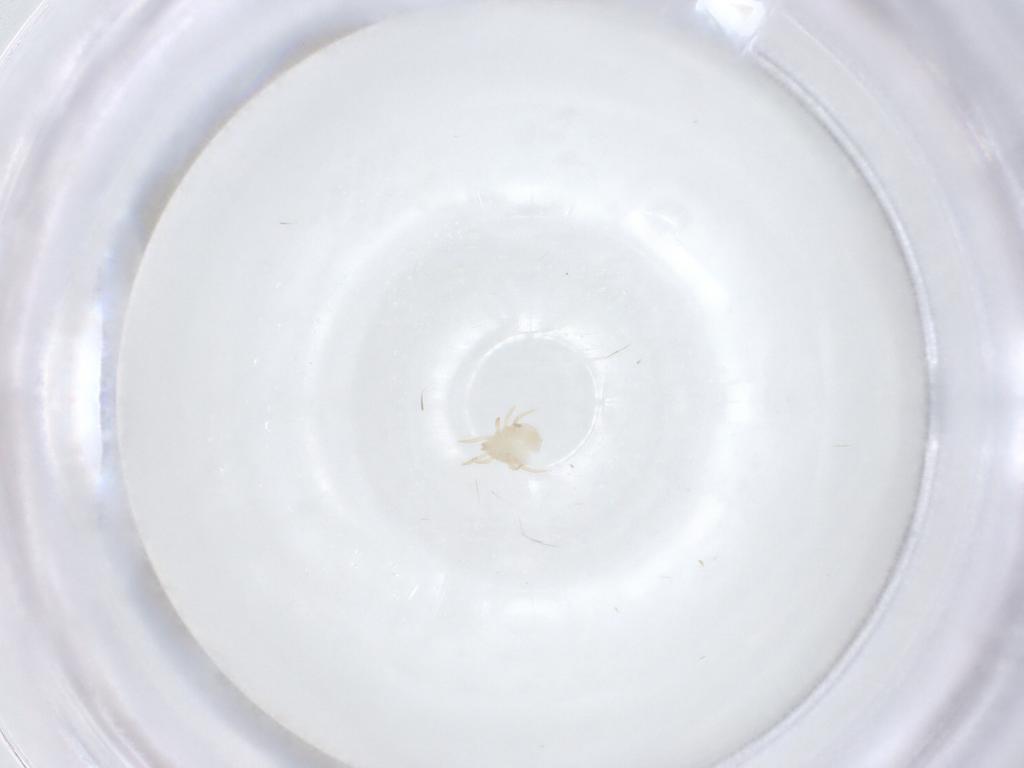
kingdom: Animalia
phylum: Arthropoda
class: Arachnida
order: Mesostigmata
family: Ameroseiidae
